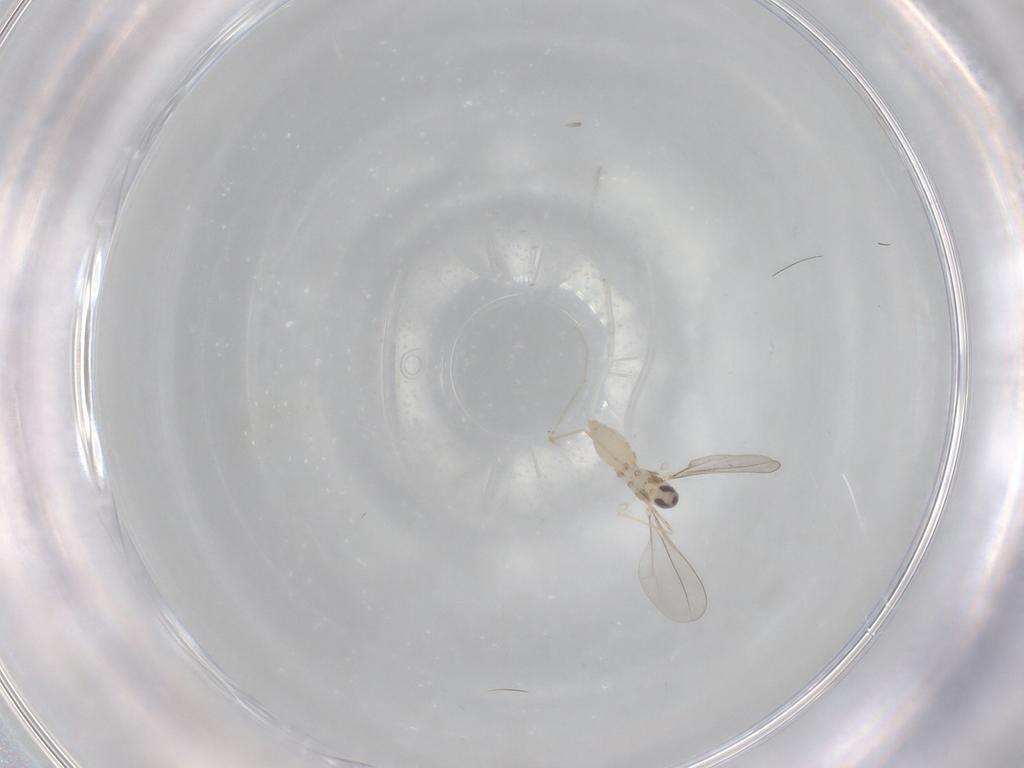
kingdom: Animalia
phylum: Arthropoda
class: Insecta
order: Diptera
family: Cecidomyiidae
